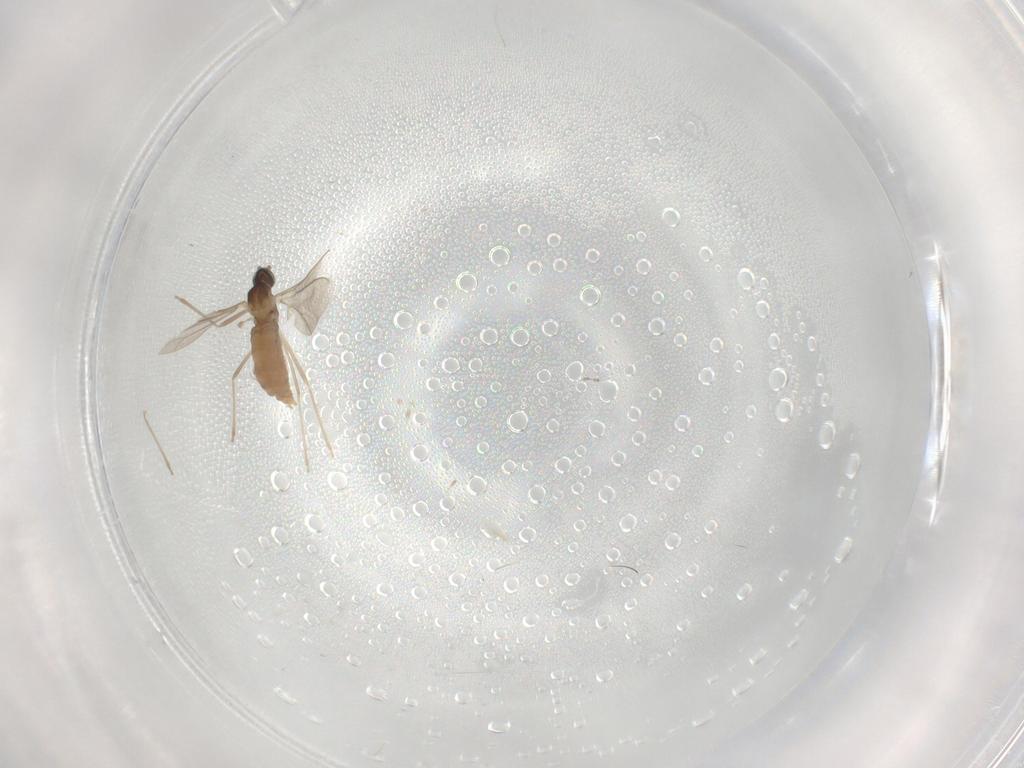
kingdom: Animalia
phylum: Arthropoda
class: Insecta
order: Diptera
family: Cecidomyiidae
